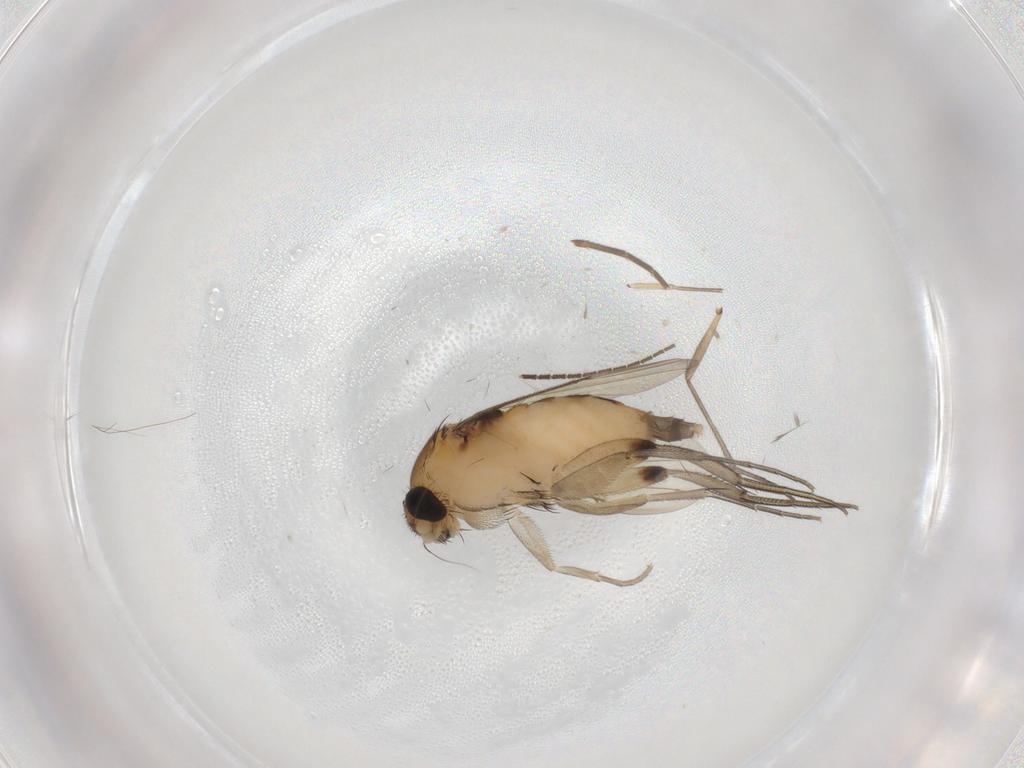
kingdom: Animalia
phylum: Arthropoda
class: Insecta
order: Diptera
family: Phoridae
